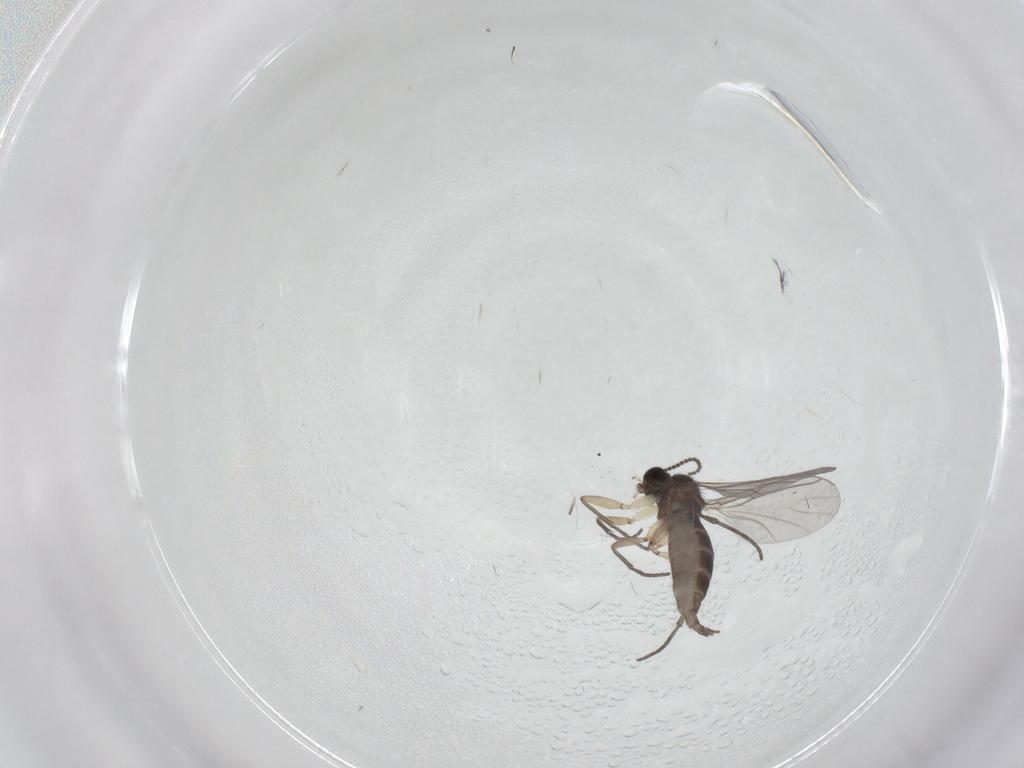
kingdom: Animalia
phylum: Arthropoda
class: Insecta
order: Diptera
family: Sciaridae
